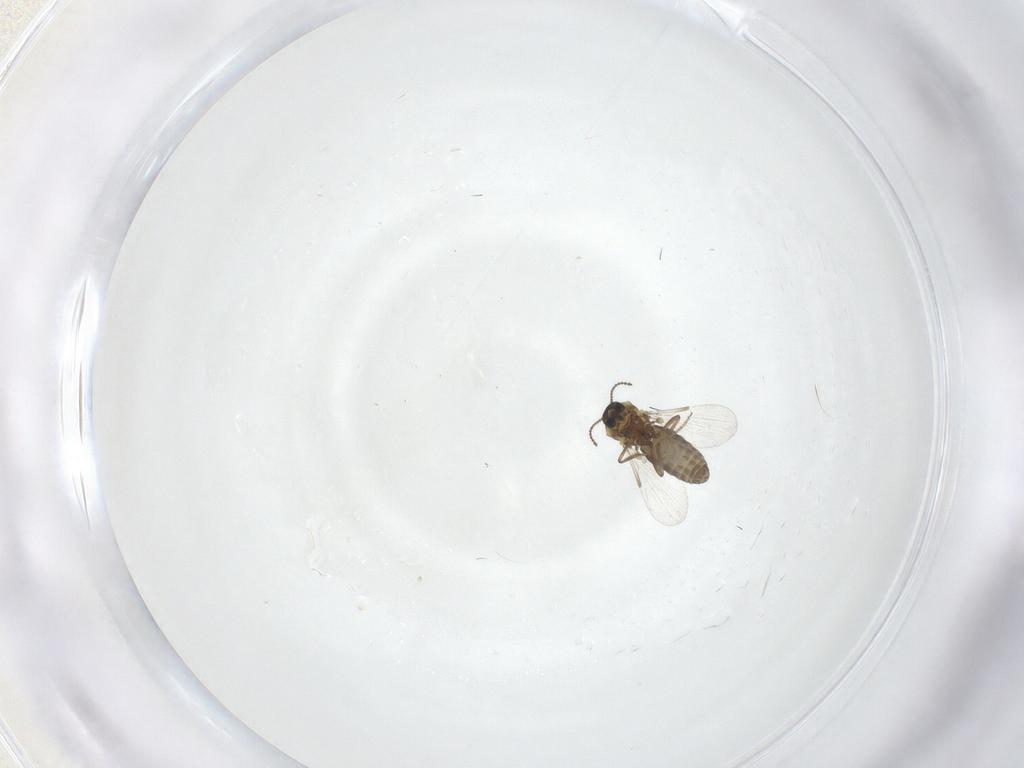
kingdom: Animalia
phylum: Arthropoda
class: Insecta
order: Diptera
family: Ceratopogonidae
